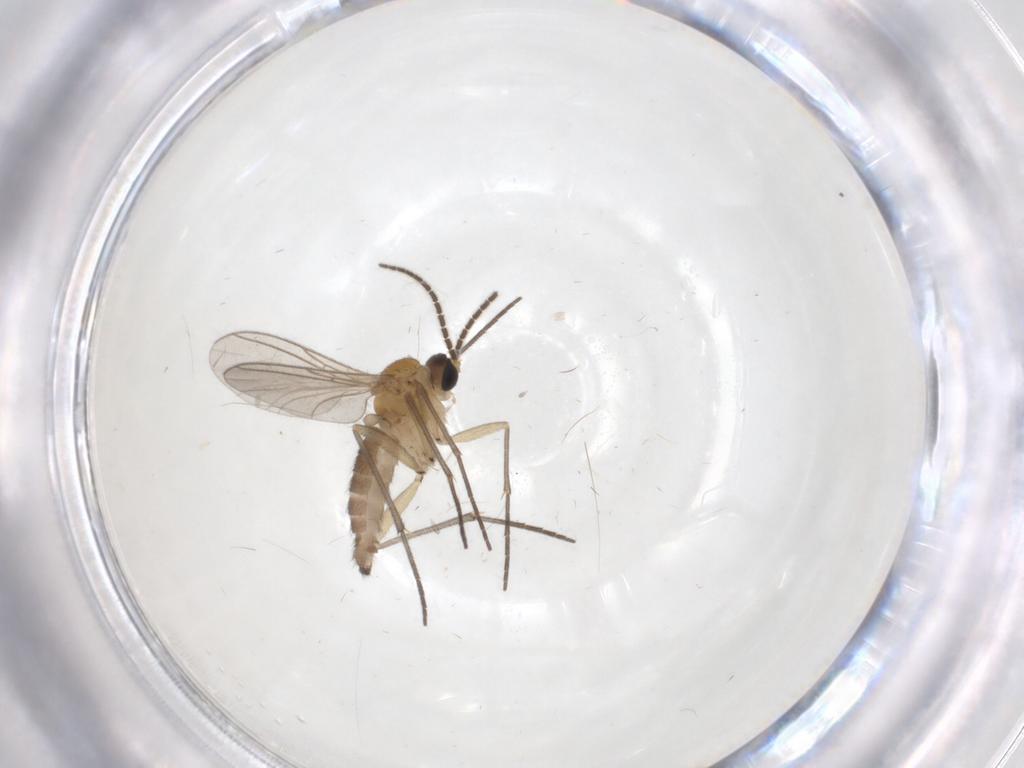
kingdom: Animalia
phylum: Arthropoda
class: Insecta
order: Diptera
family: Sciaridae
